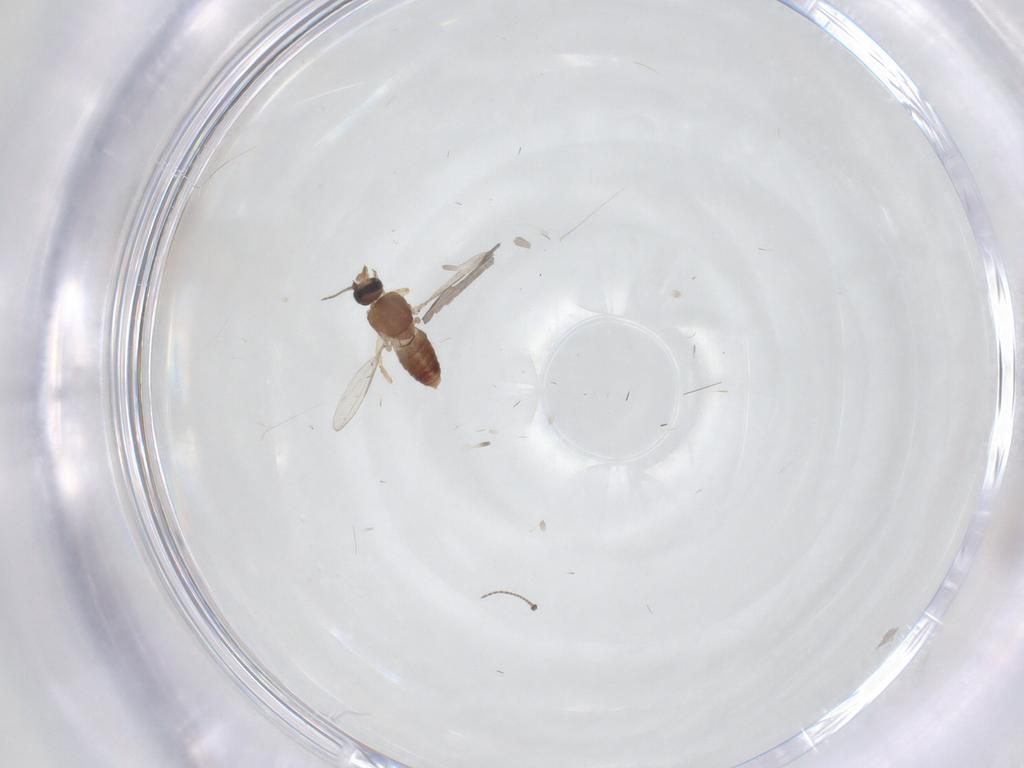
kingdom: Animalia
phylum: Arthropoda
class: Insecta
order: Diptera
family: Ceratopogonidae
